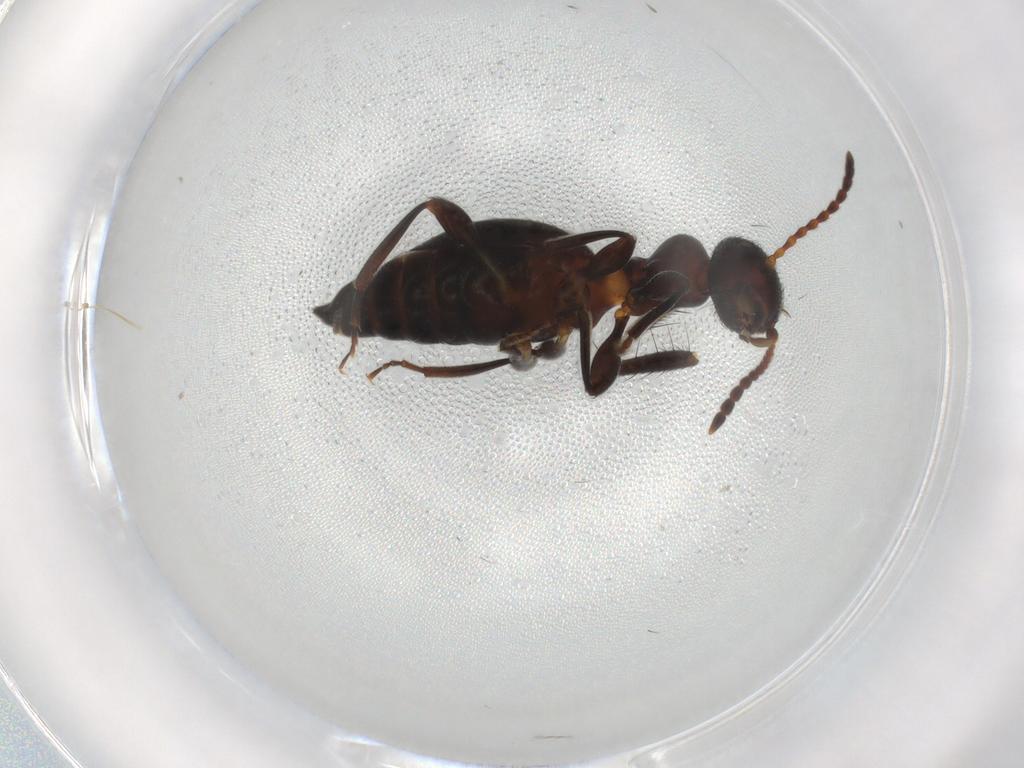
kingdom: Animalia
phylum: Arthropoda
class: Insecta
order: Coleoptera
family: Anthicidae
